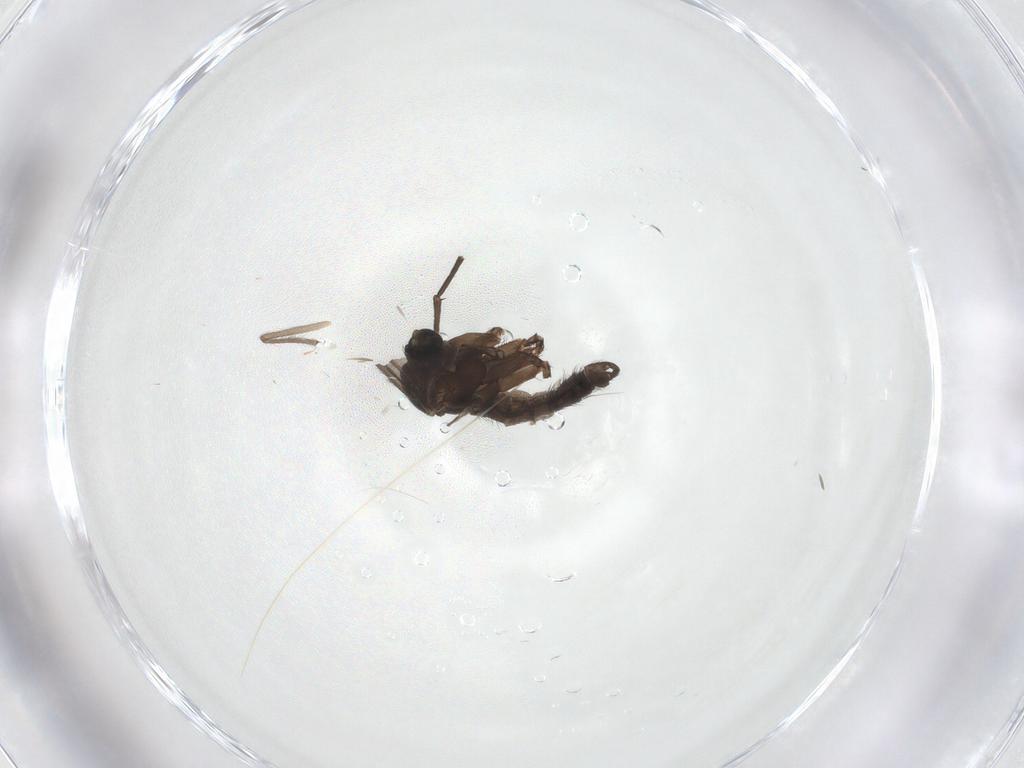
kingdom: Animalia
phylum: Arthropoda
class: Insecta
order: Diptera
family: Chironomidae
